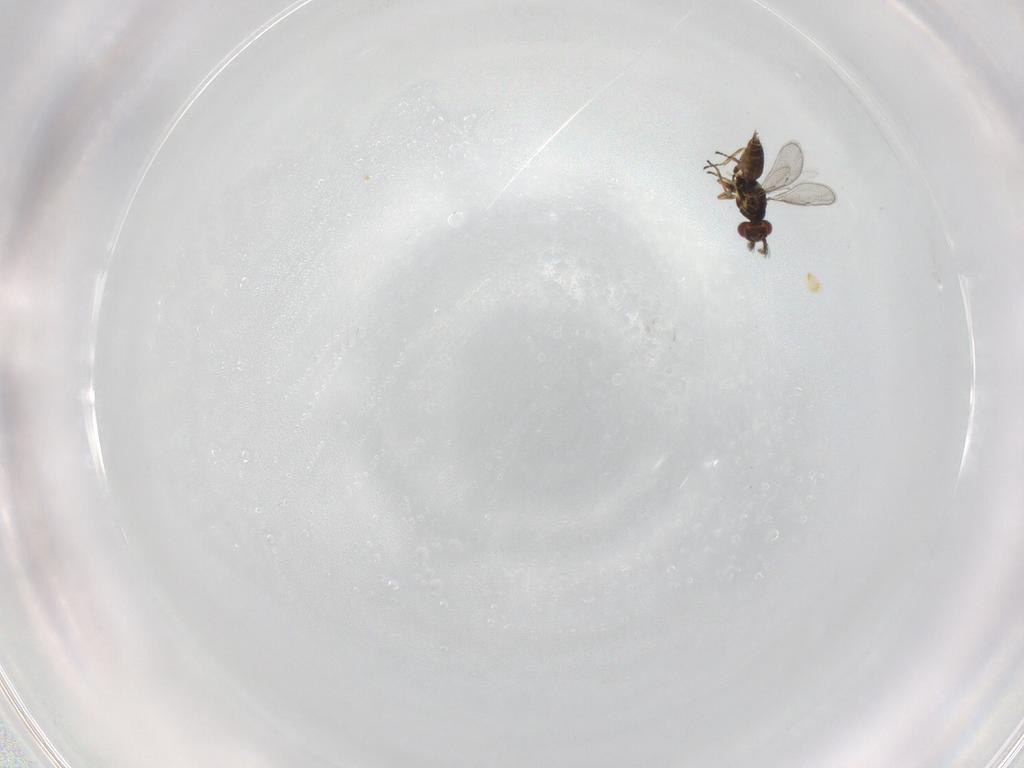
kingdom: Animalia
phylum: Arthropoda
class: Insecta
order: Hymenoptera
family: Eulophidae
